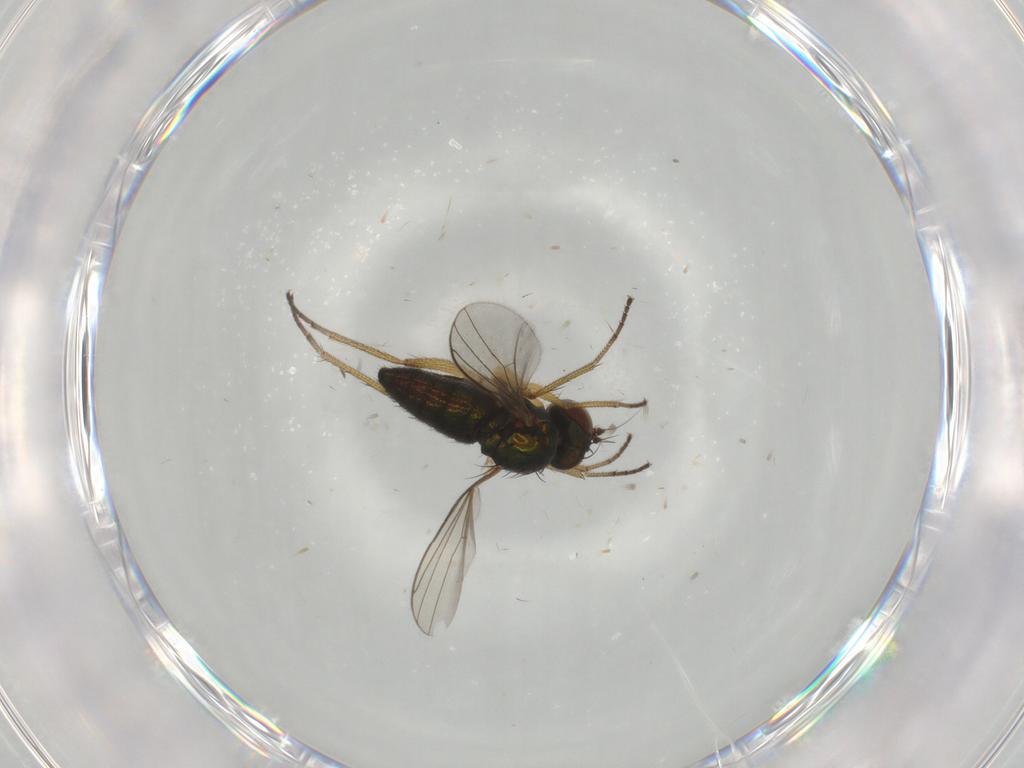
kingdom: Animalia
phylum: Arthropoda
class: Insecta
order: Diptera
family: Dolichopodidae
